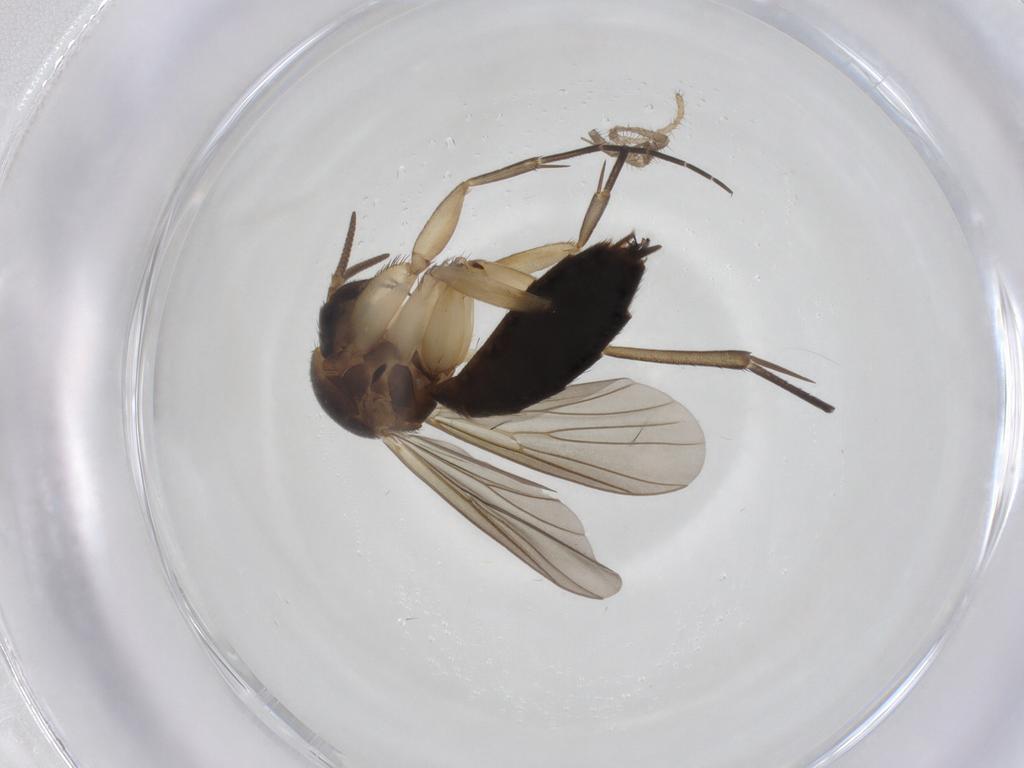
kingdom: Animalia
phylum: Arthropoda
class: Insecta
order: Diptera
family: Mycetophilidae
